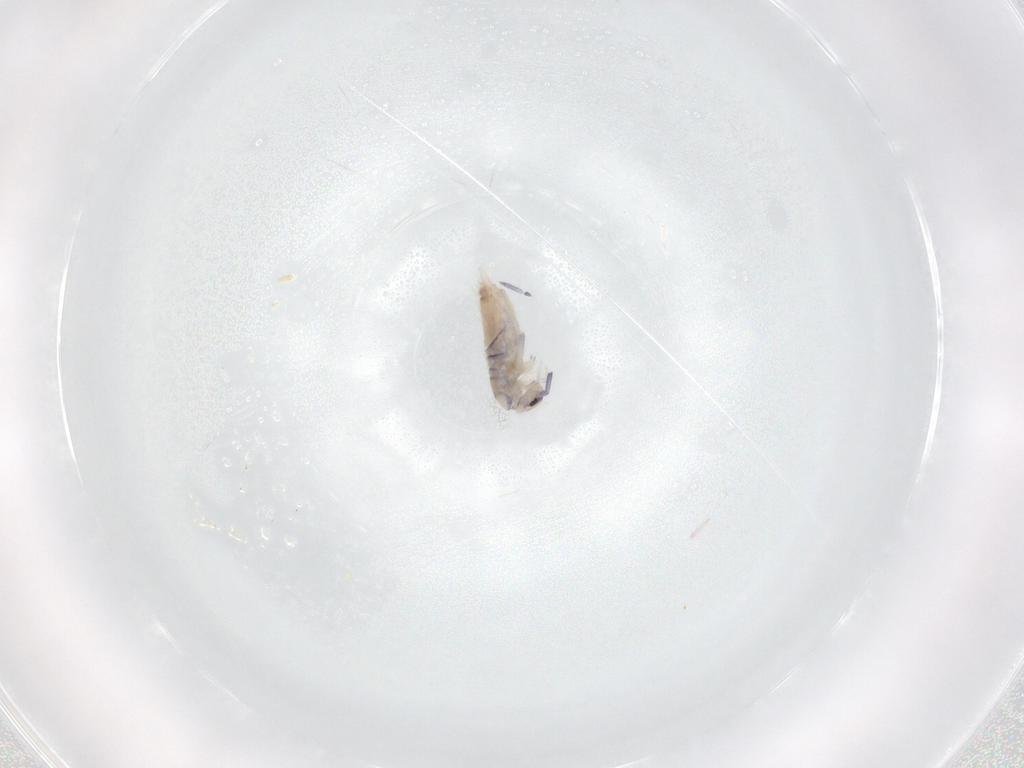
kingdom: Animalia
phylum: Arthropoda
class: Collembola
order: Entomobryomorpha
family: Entomobryidae
